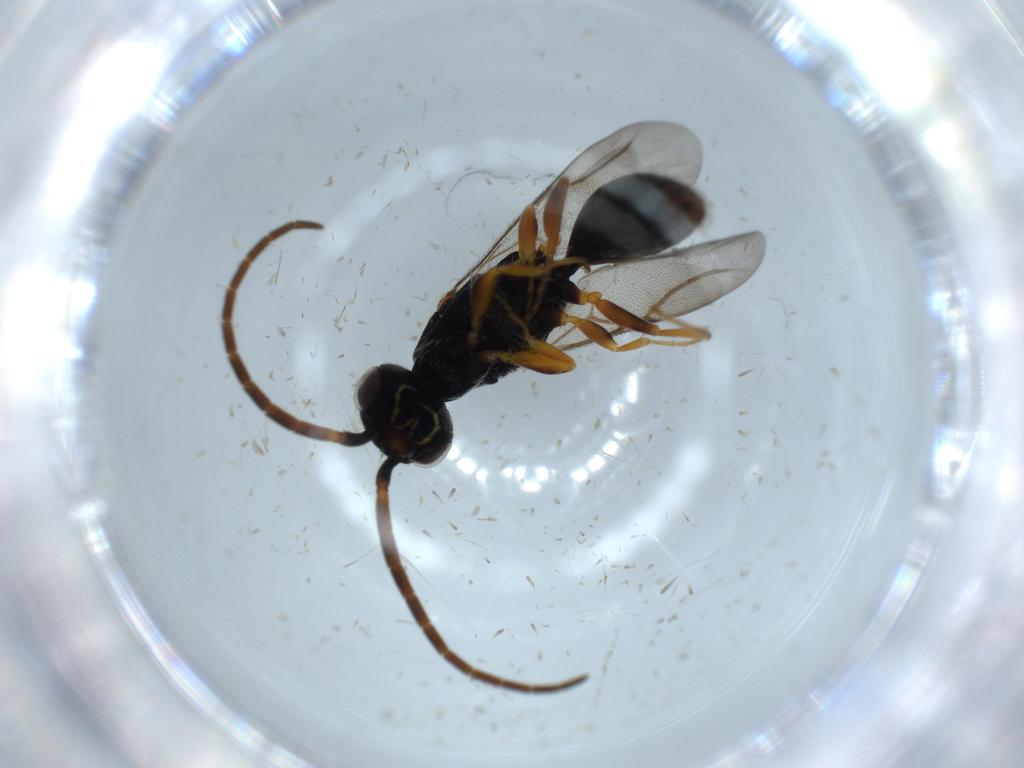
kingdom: Animalia
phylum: Arthropoda
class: Insecta
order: Hymenoptera
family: Bethylidae
